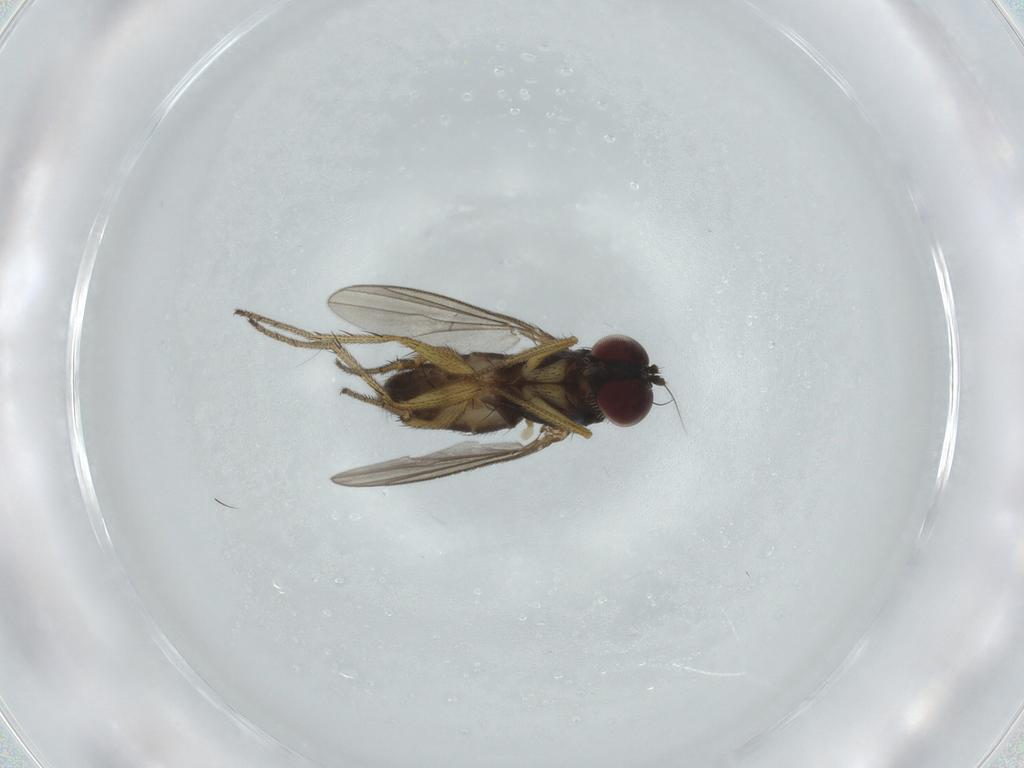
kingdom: Animalia
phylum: Arthropoda
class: Insecta
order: Diptera
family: Dolichopodidae
